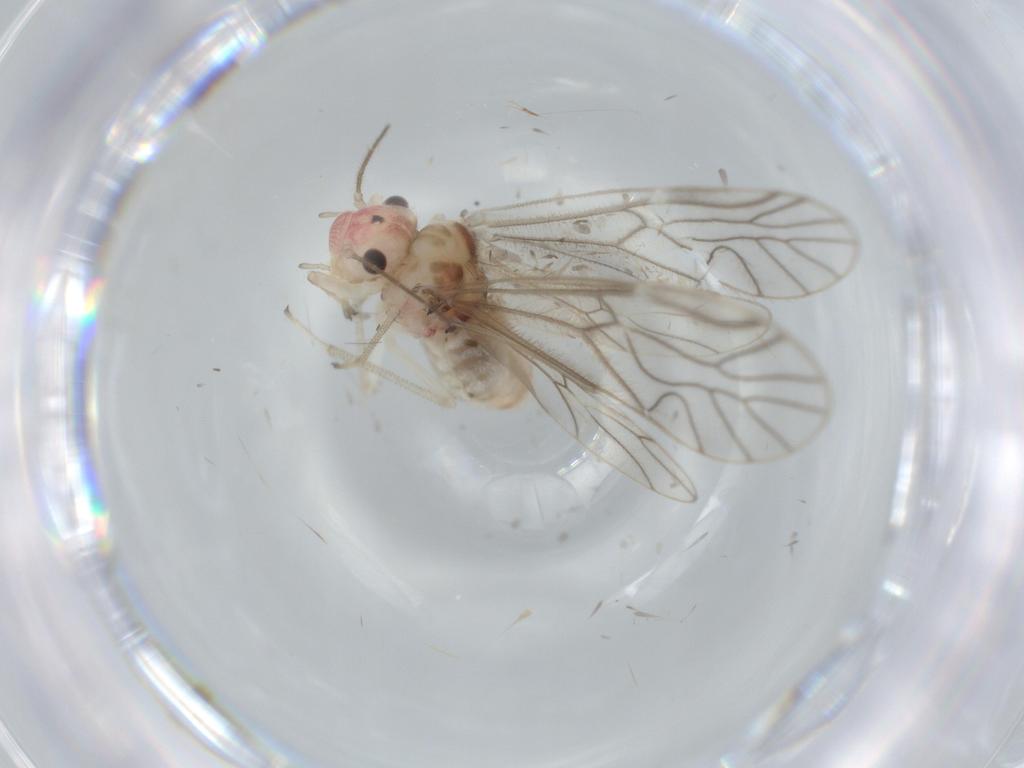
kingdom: Animalia
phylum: Arthropoda
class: Insecta
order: Psocodea
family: Amphipsocidae
